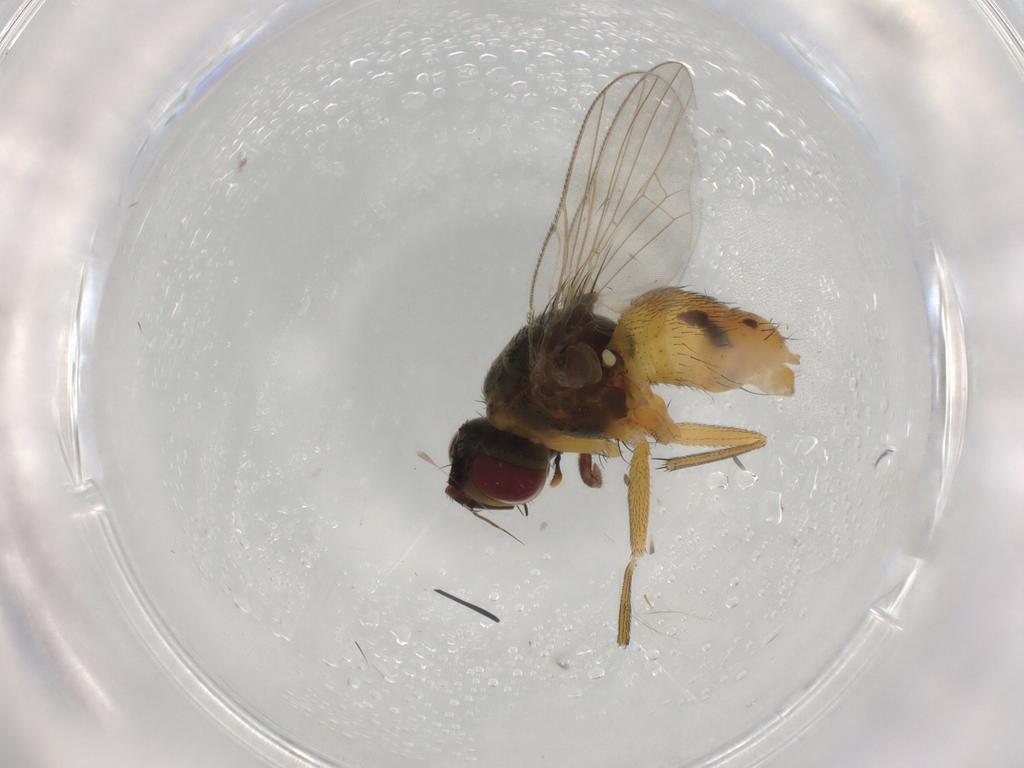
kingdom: Animalia
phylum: Arthropoda
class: Insecta
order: Diptera
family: Muscidae
